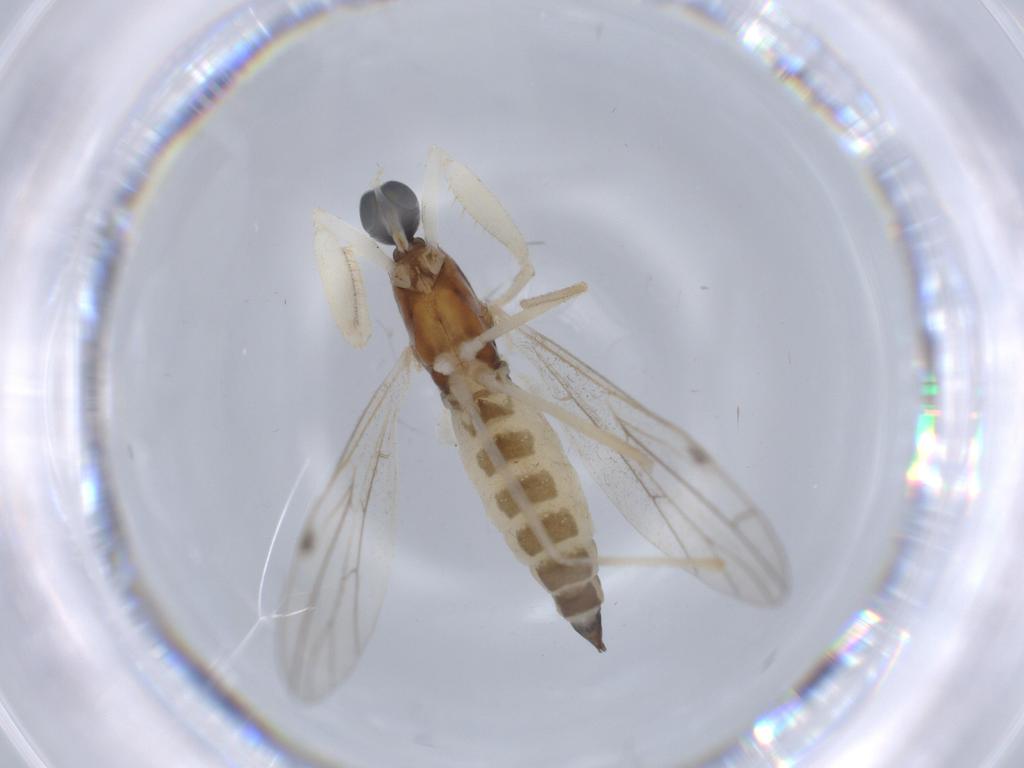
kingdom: Animalia
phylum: Arthropoda
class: Insecta
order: Diptera
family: Empididae
